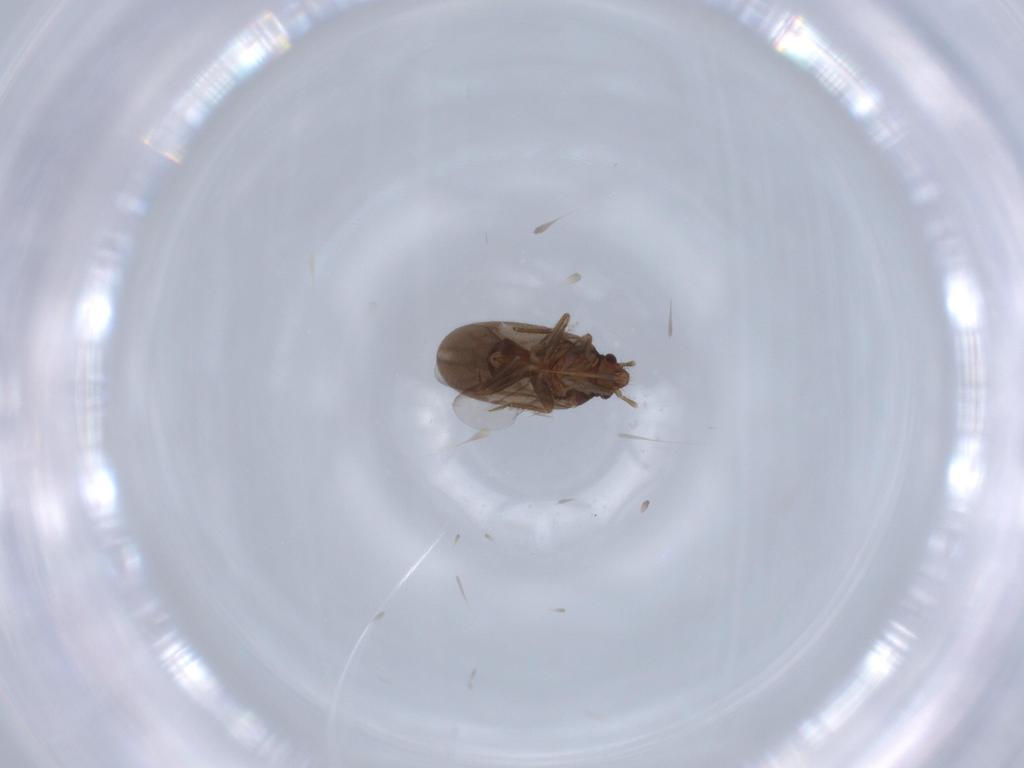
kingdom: Animalia
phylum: Arthropoda
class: Insecta
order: Hemiptera
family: Ceratocombidae
